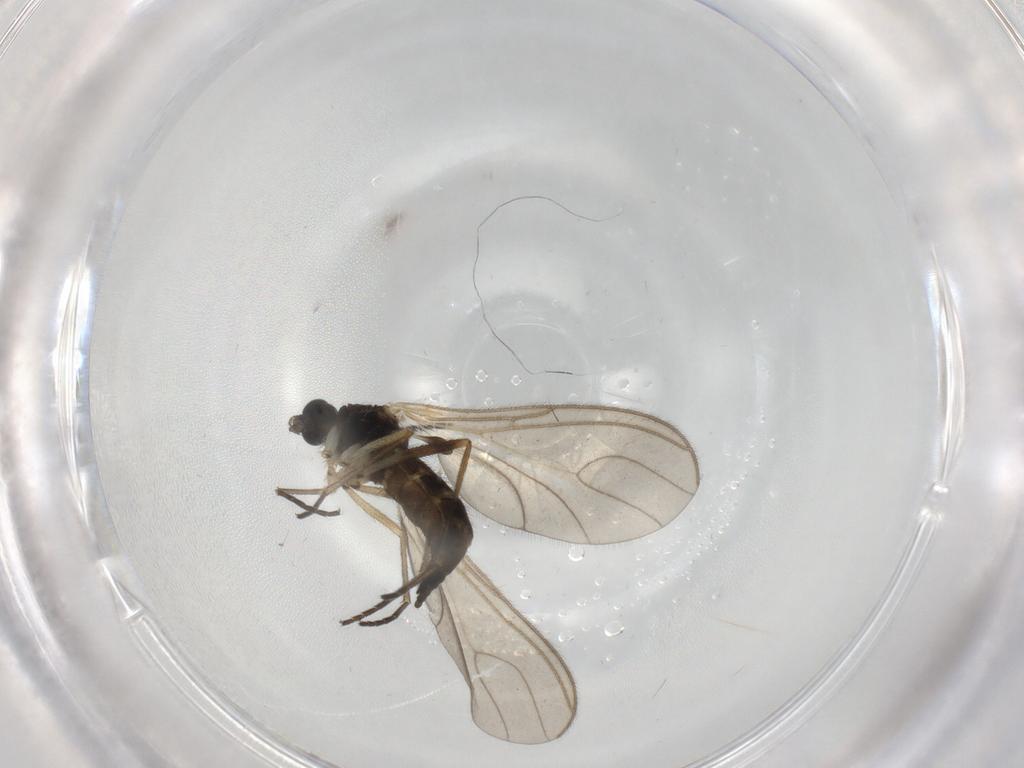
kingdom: Animalia
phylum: Arthropoda
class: Insecta
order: Diptera
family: Sciaridae
